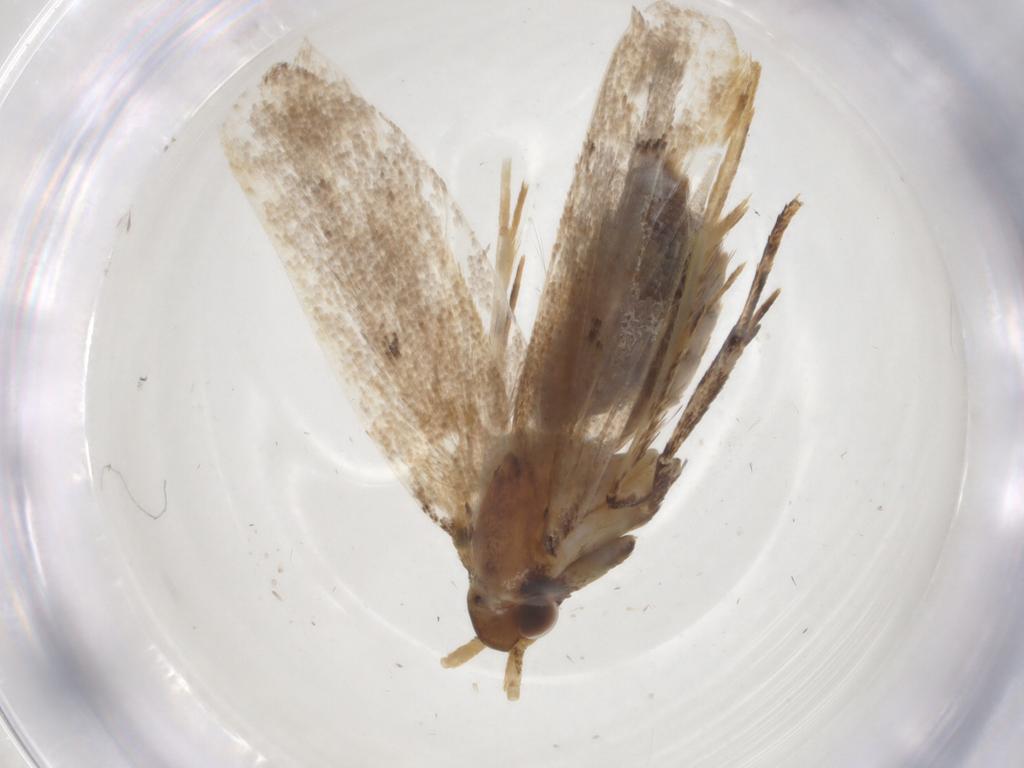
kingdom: Animalia
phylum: Arthropoda
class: Insecta
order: Lepidoptera
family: Lecithoceridae
